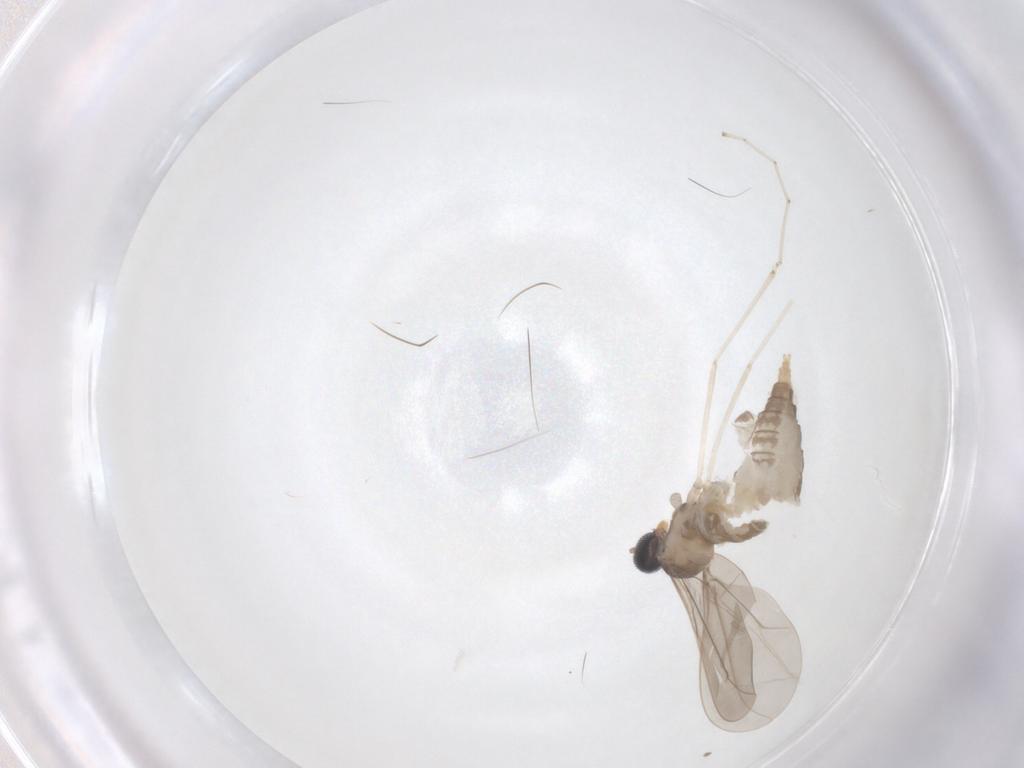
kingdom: Animalia
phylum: Arthropoda
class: Insecta
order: Diptera
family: Cecidomyiidae
